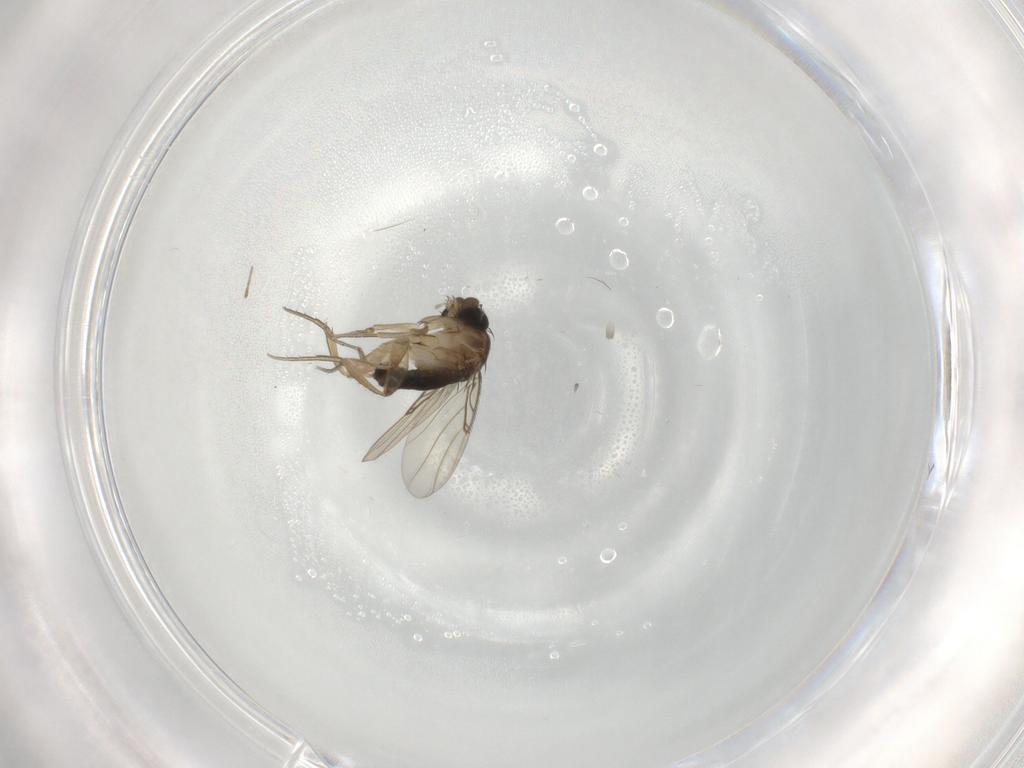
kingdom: Animalia
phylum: Arthropoda
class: Insecta
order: Diptera
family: Phoridae
